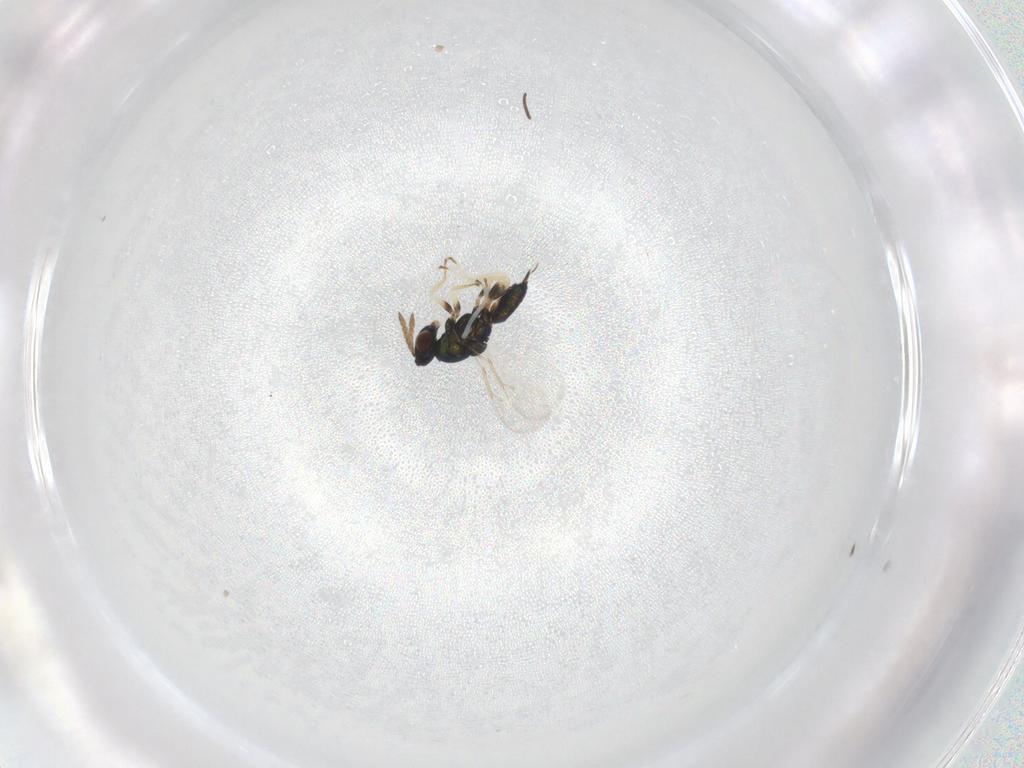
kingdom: Animalia
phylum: Arthropoda
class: Insecta
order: Hymenoptera
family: Eulophidae
